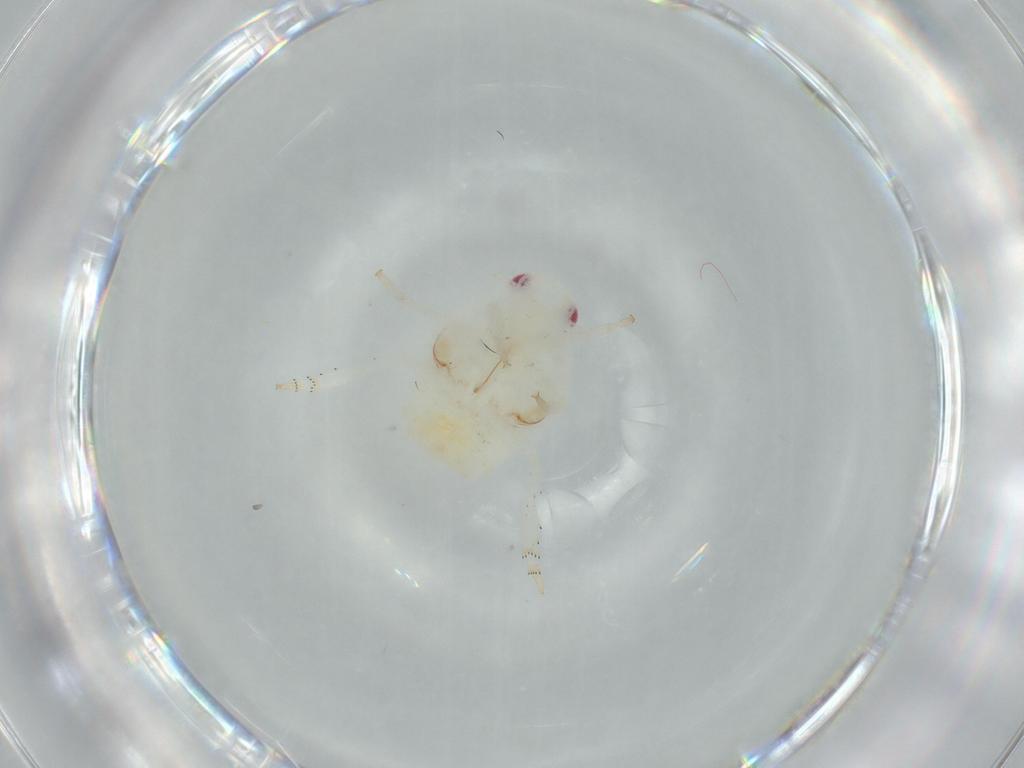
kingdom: Animalia
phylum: Arthropoda
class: Insecta
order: Hemiptera
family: Flatidae
